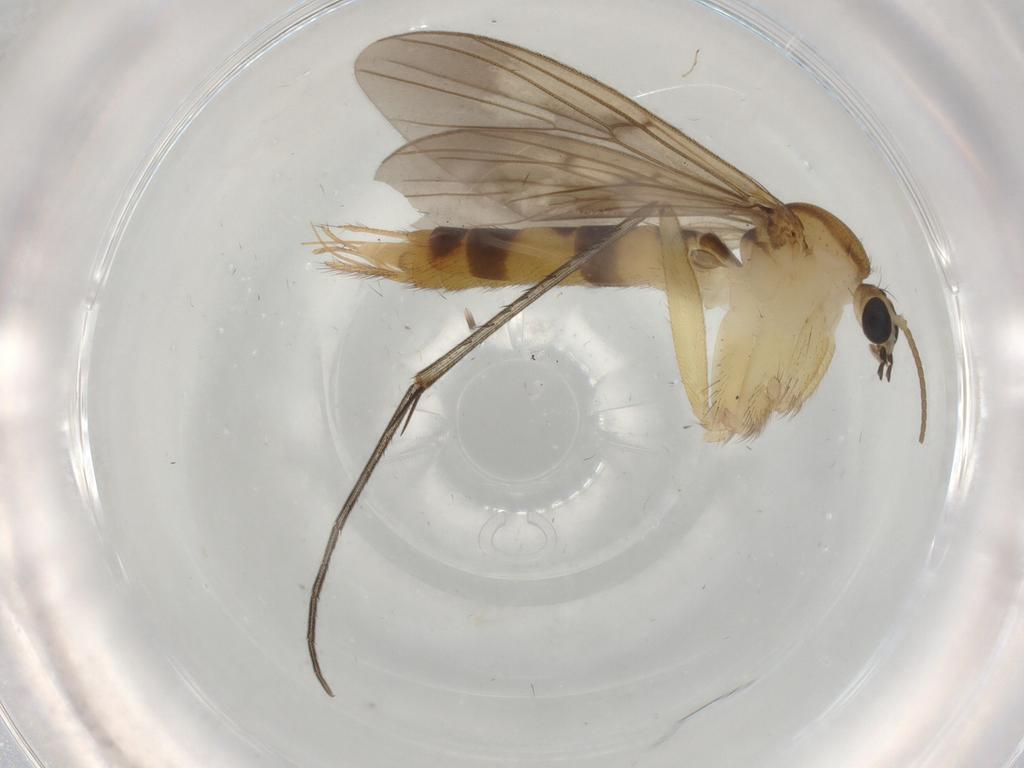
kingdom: Animalia
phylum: Arthropoda
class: Insecta
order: Diptera
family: Mycetophilidae
